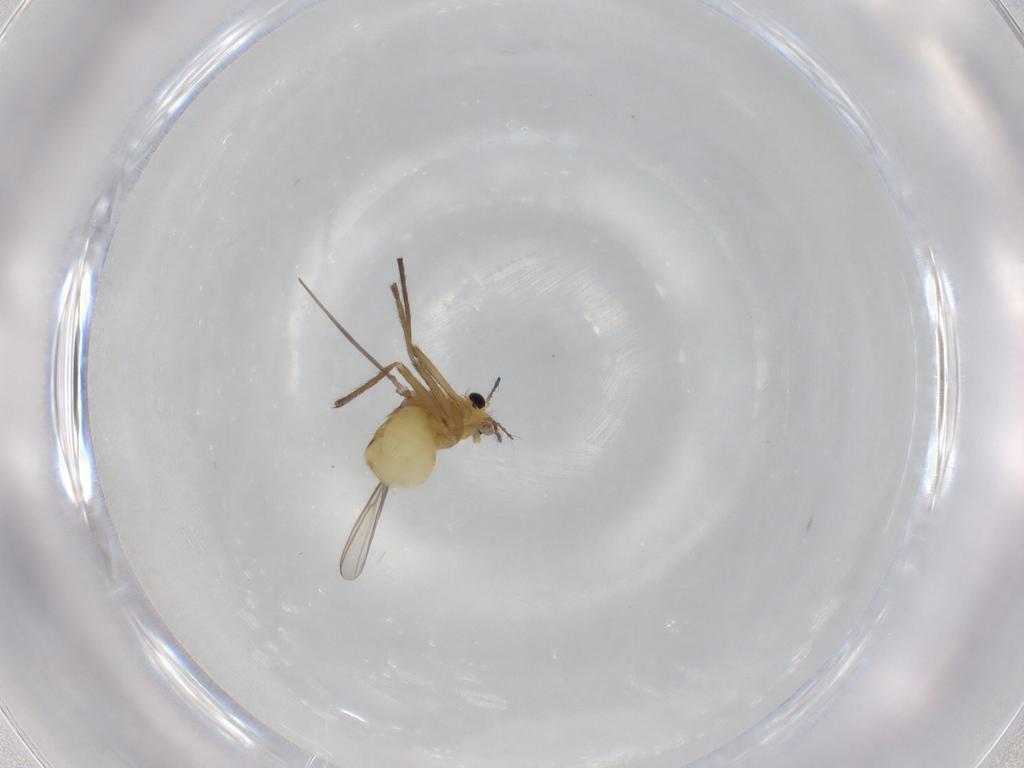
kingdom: Animalia
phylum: Arthropoda
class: Insecta
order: Diptera
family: Chironomidae
